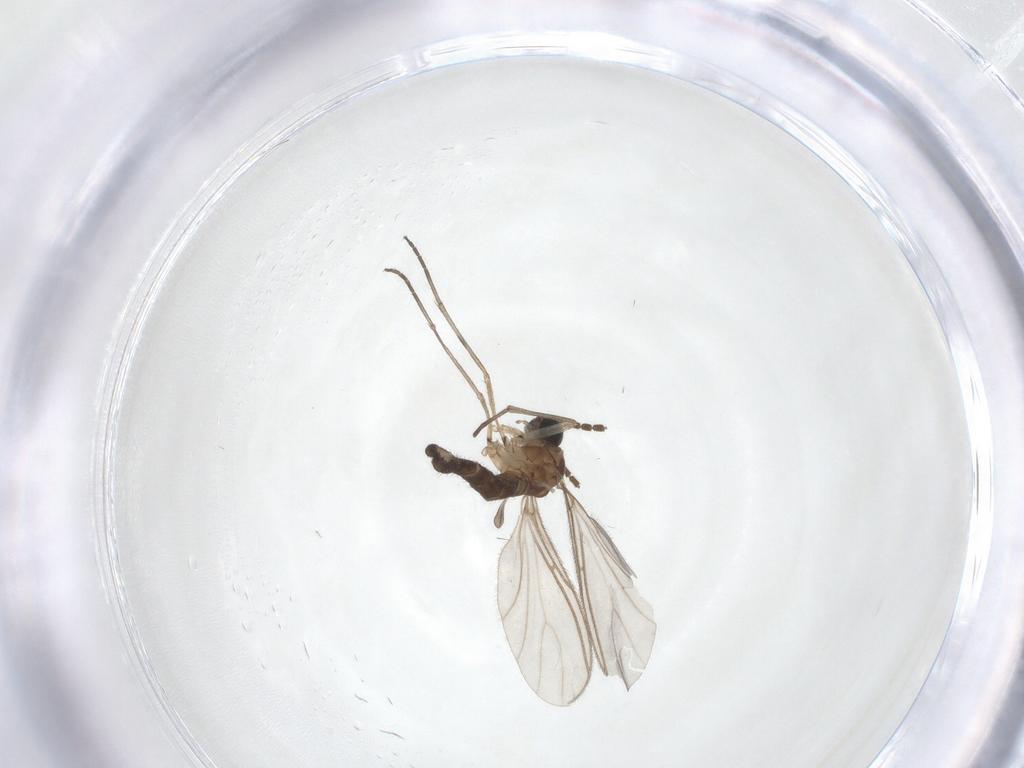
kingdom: Animalia
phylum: Arthropoda
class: Insecta
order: Diptera
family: Sciaridae
